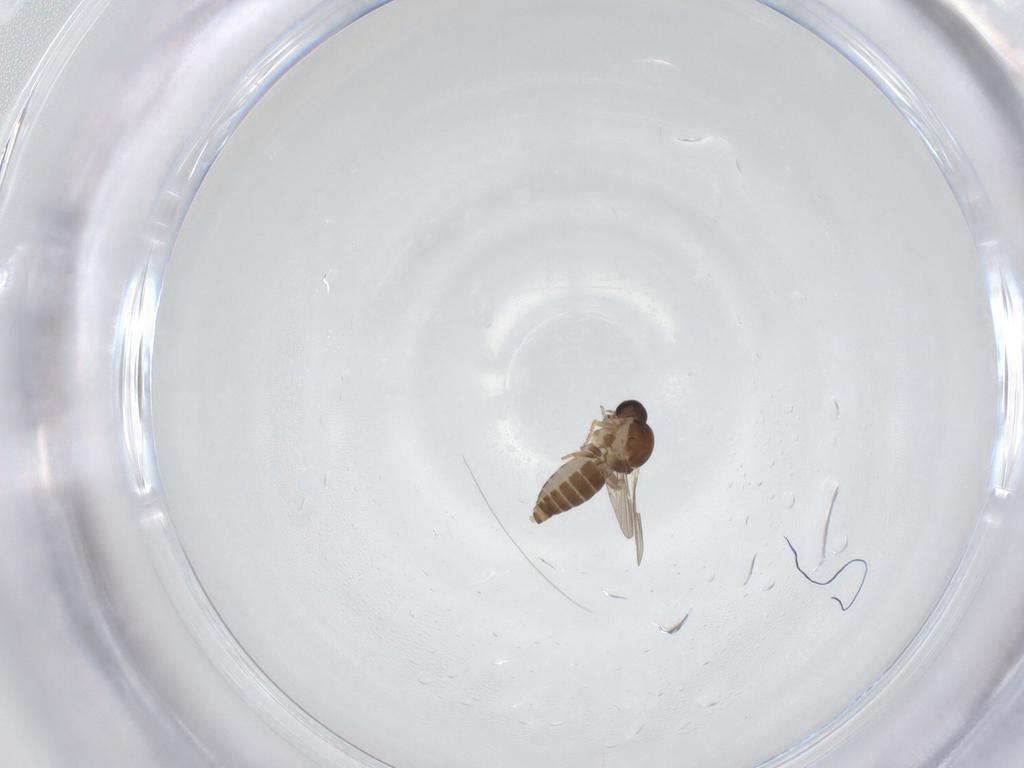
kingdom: Animalia
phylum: Arthropoda
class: Insecta
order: Diptera
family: Ceratopogonidae
